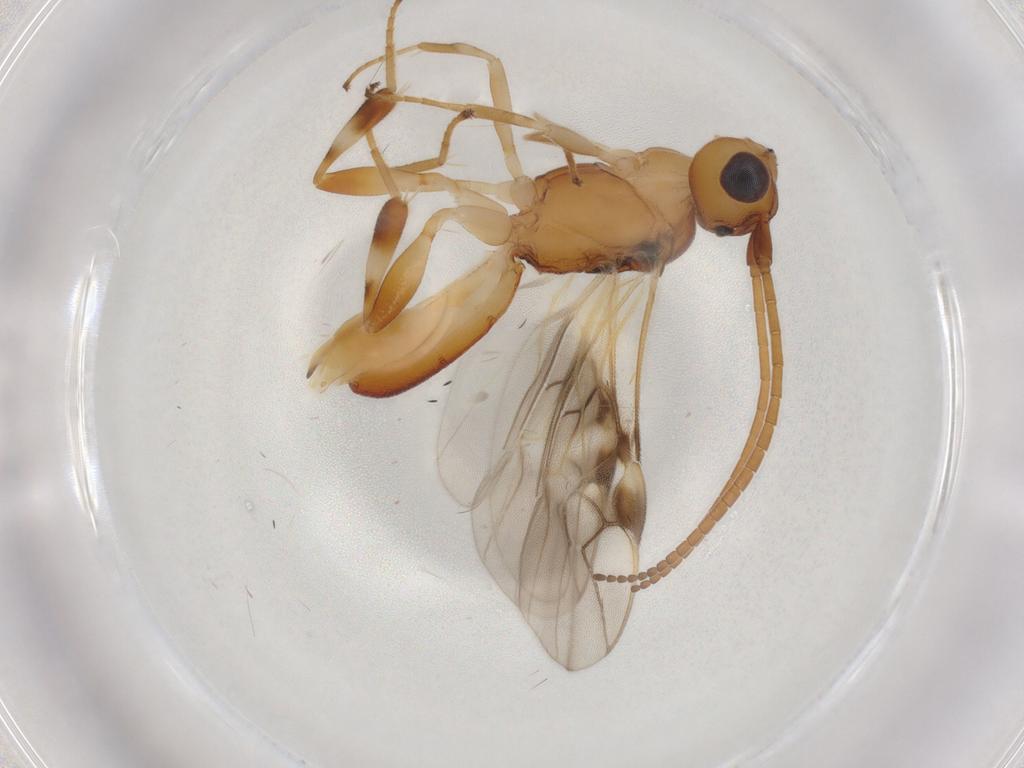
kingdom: Animalia
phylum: Arthropoda
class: Insecta
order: Hymenoptera
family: Braconidae
